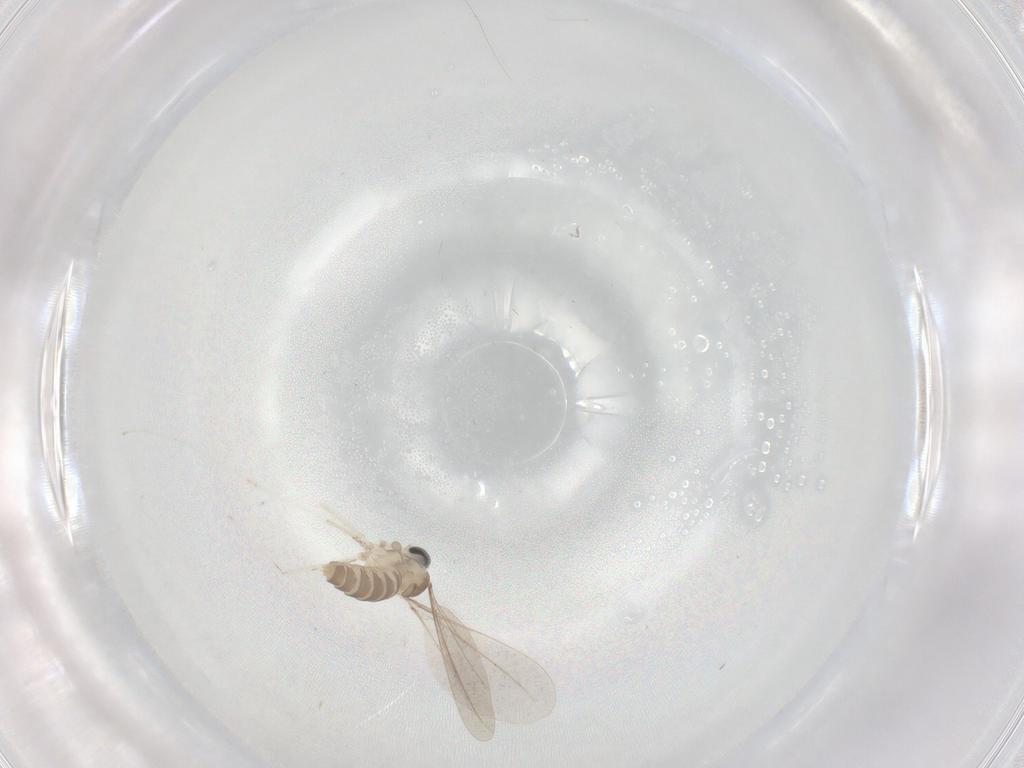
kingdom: Animalia
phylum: Arthropoda
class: Insecta
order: Diptera
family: Cecidomyiidae
